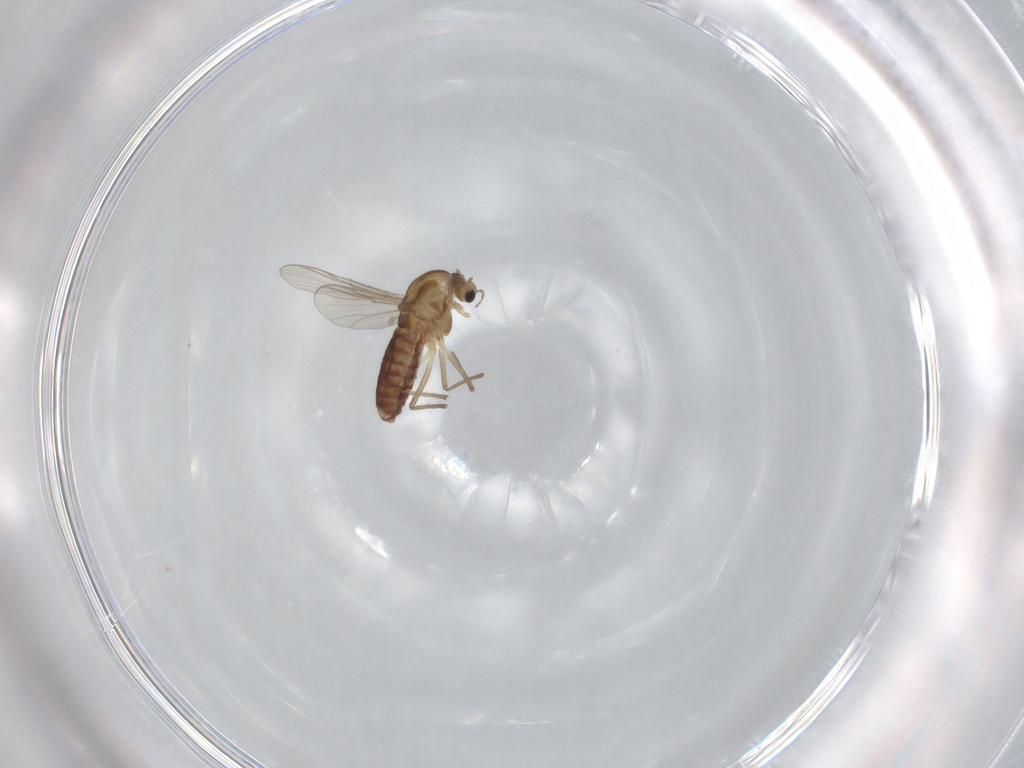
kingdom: Animalia
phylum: Arthropoda
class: Insecta
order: Diptera
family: Chironomidae
